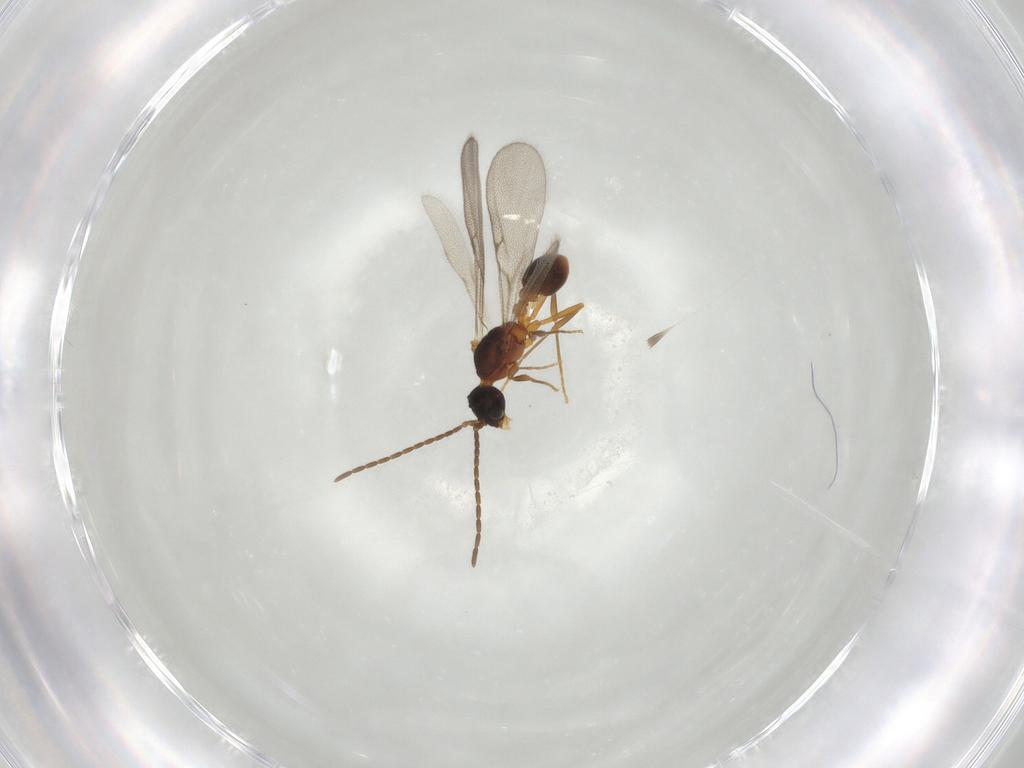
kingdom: Animalia
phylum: Arthropoda
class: Insecta
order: Hymenoptera
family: Formicidae
